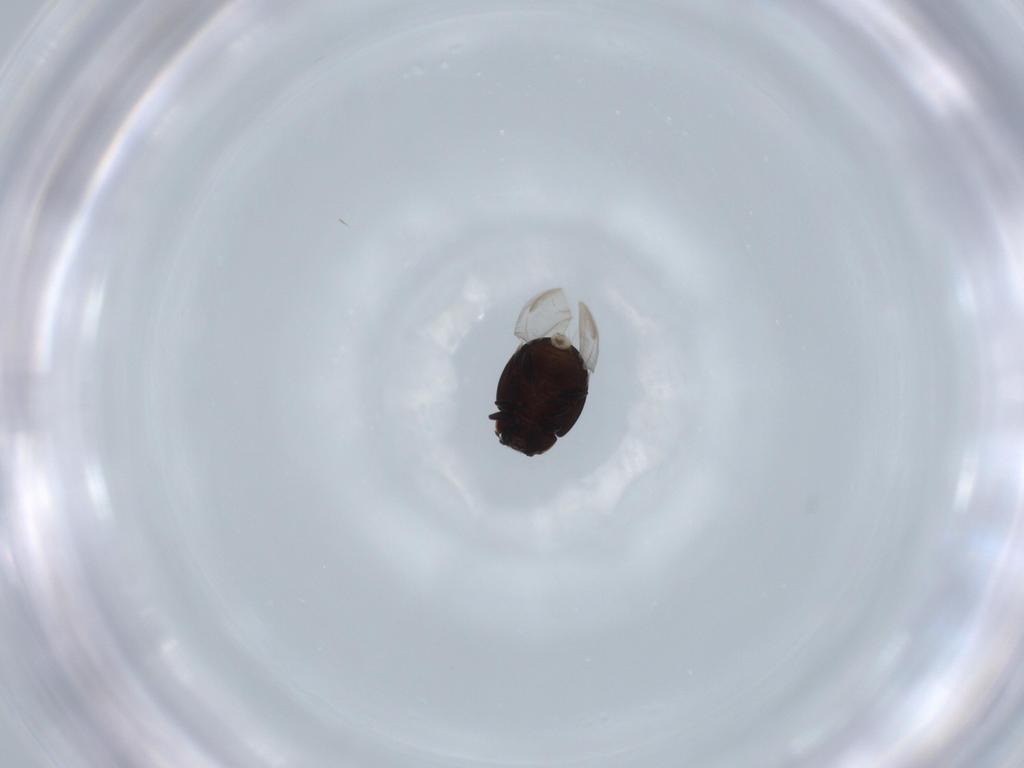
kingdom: Animalia
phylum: Arthropoda
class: Insecta
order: Coleoptera
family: Coccinellidae
